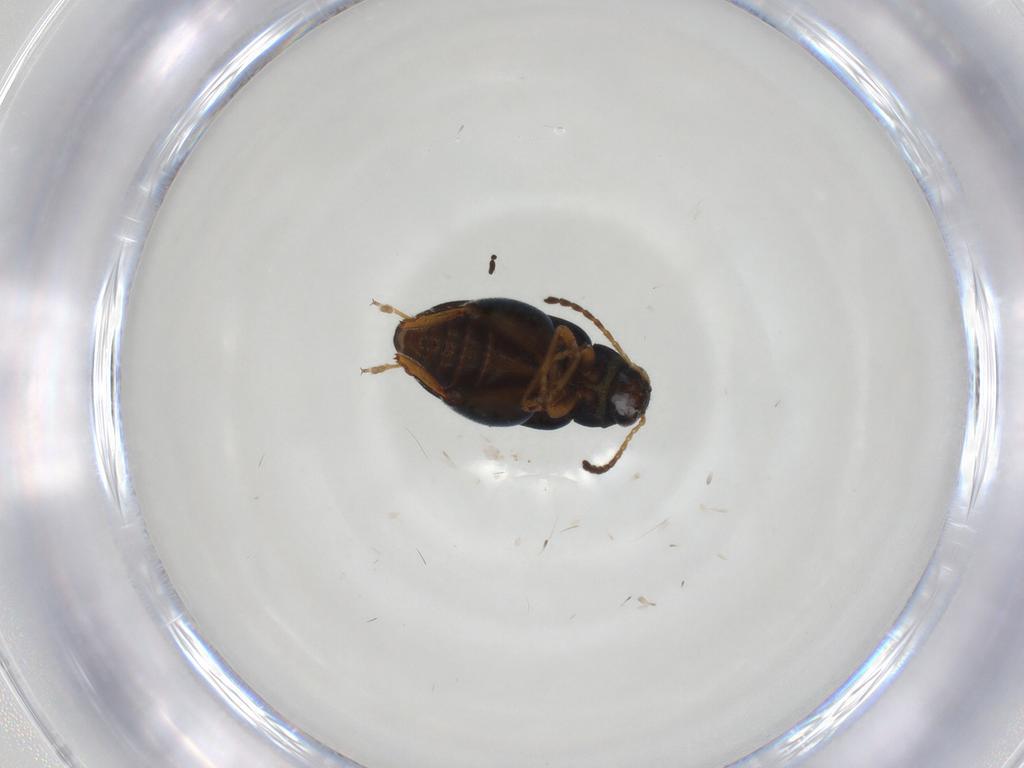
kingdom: Animalia
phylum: Arthropoda
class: Insecta
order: Coleoptera
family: Chrysomelidae
